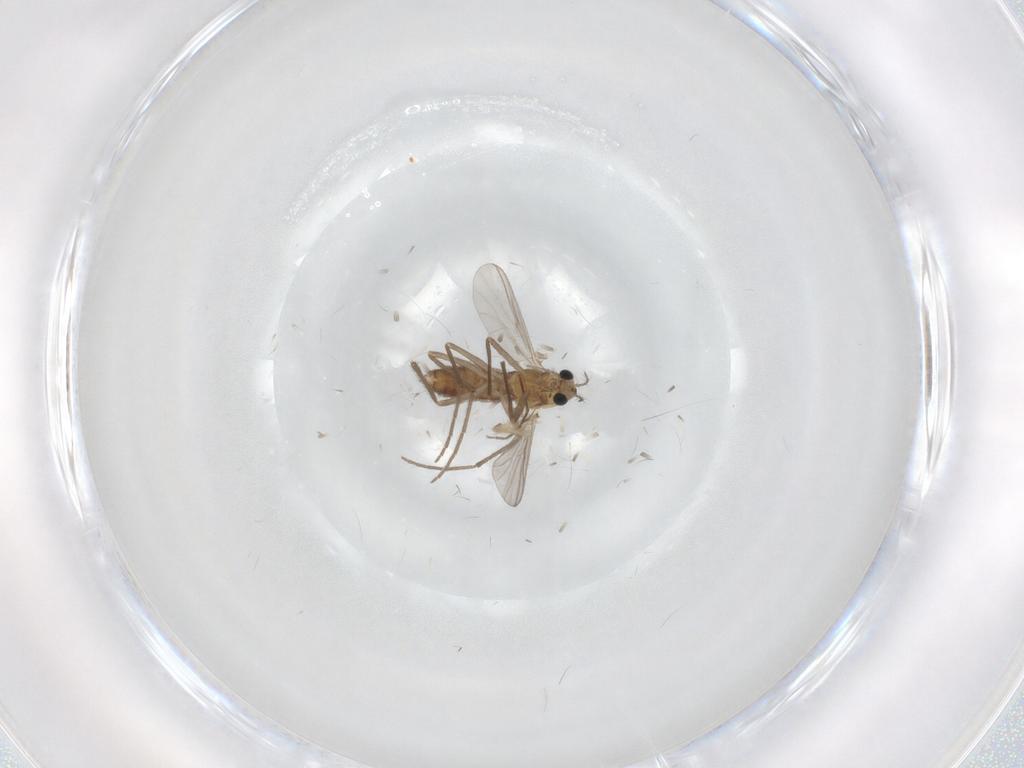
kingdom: Animalia
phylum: Arthropoda
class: Insecta
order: Diptera
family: Chironomidae
